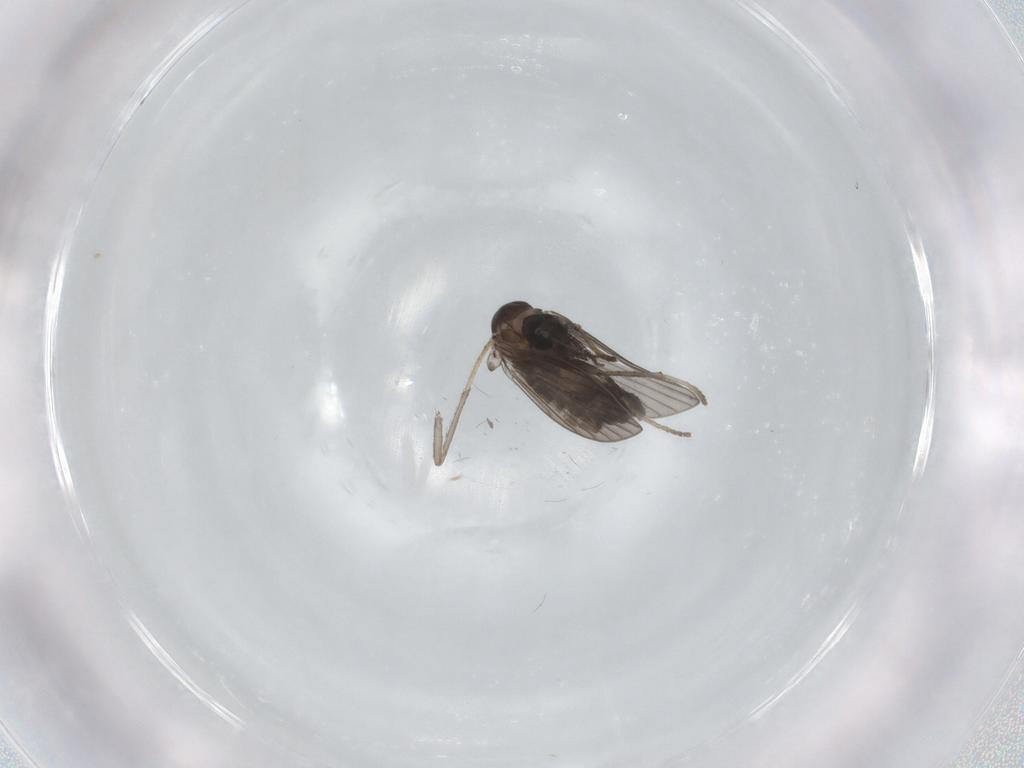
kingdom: Animalia
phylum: Arthropoda
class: Insecta
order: Diptera
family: Psychodidae
